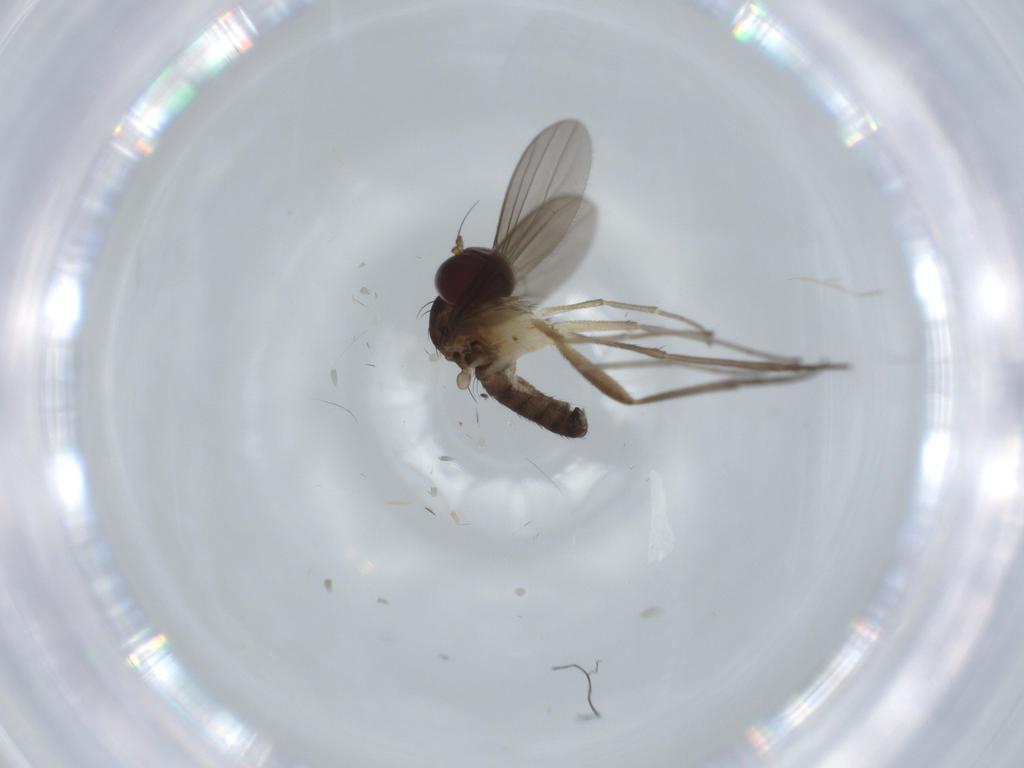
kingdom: Animalia
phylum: Arthropoda
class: Insecta
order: Diptera
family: Dolichopodidae
